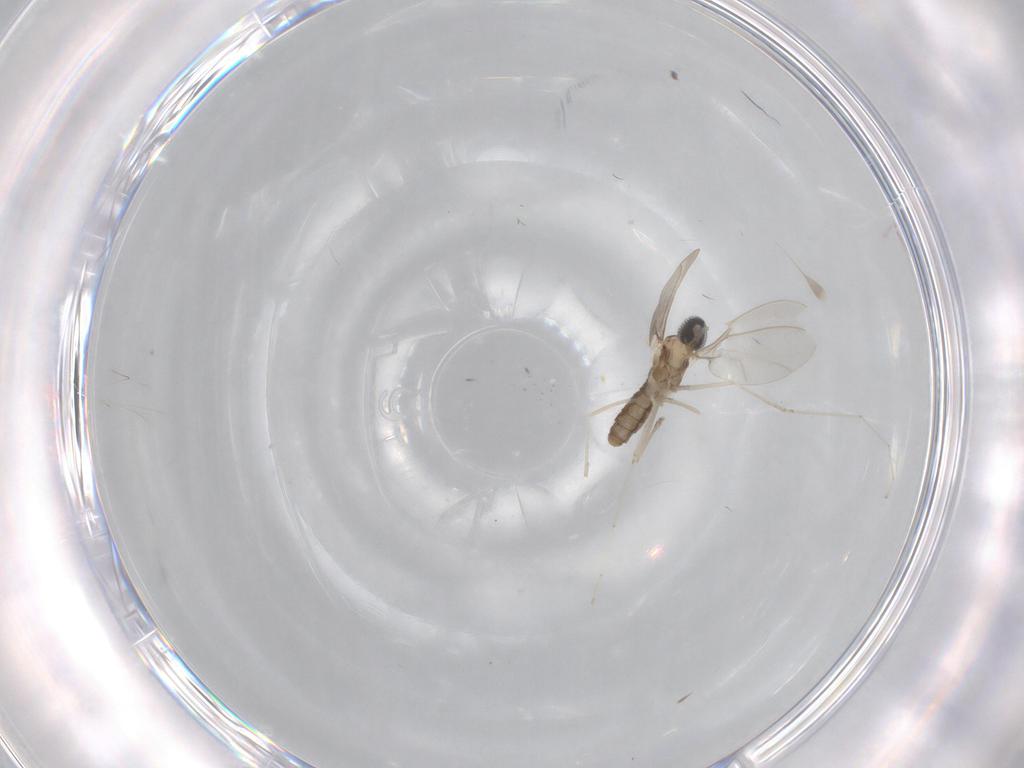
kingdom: Animalia
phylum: Arthropoda
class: Insecta
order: Diptera
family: Cecidomyiidae
